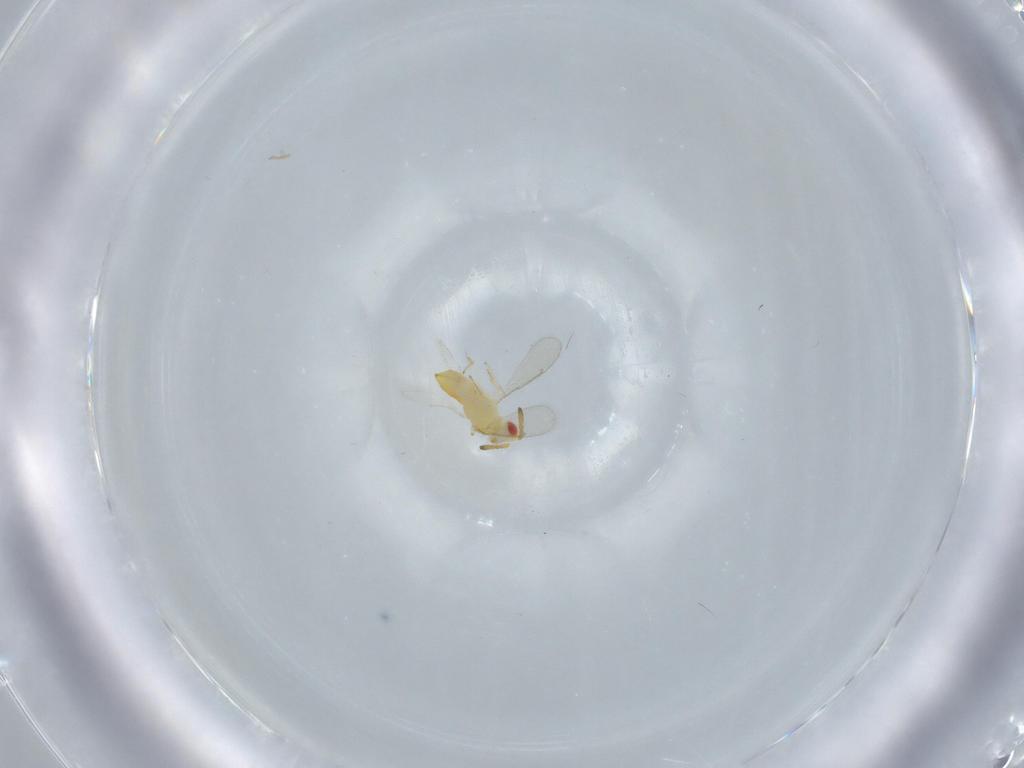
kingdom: Animalia
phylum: Arthropoda
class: Insecta
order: Hymenoptera
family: Aphelinidae
